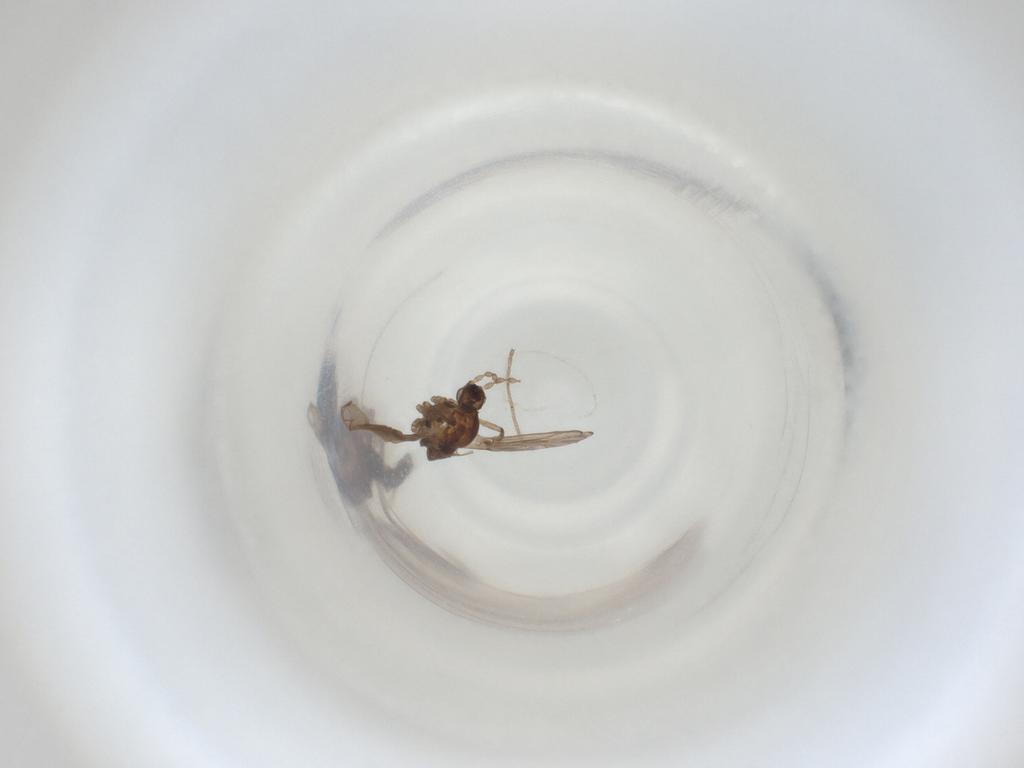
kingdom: Animalia
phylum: Arthropoda
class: Insecta
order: Diptera
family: Cecidomyiidae
